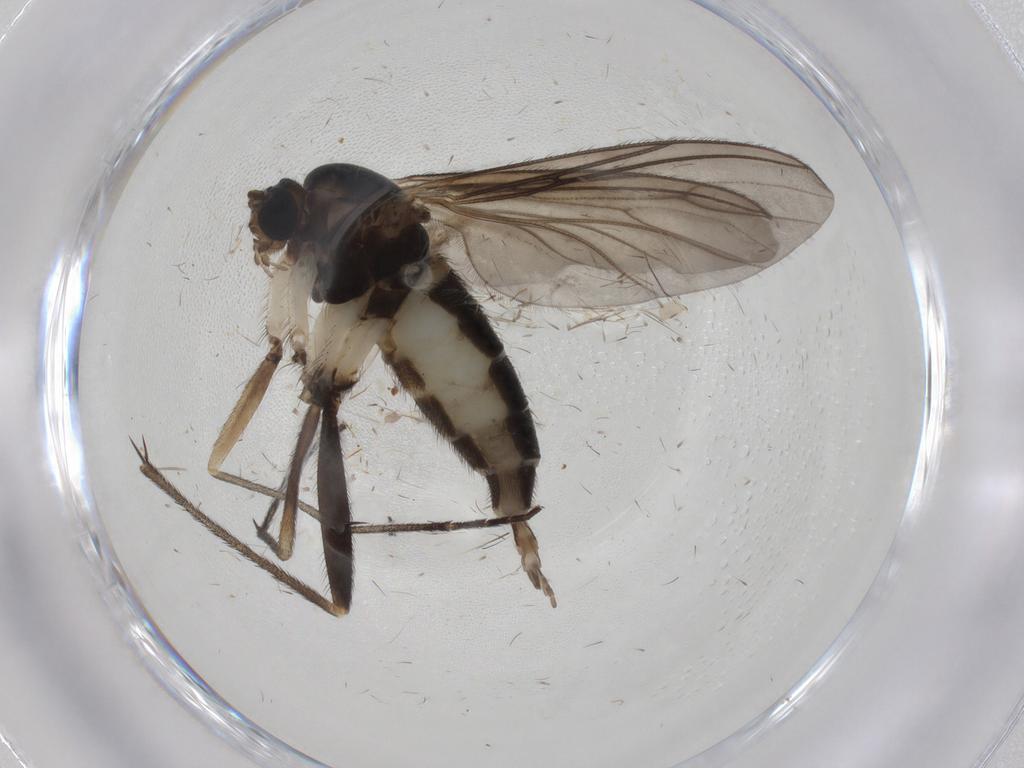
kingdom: Animalia
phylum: Arthropoda
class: Insecta
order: Diptera
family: Sciaridae
